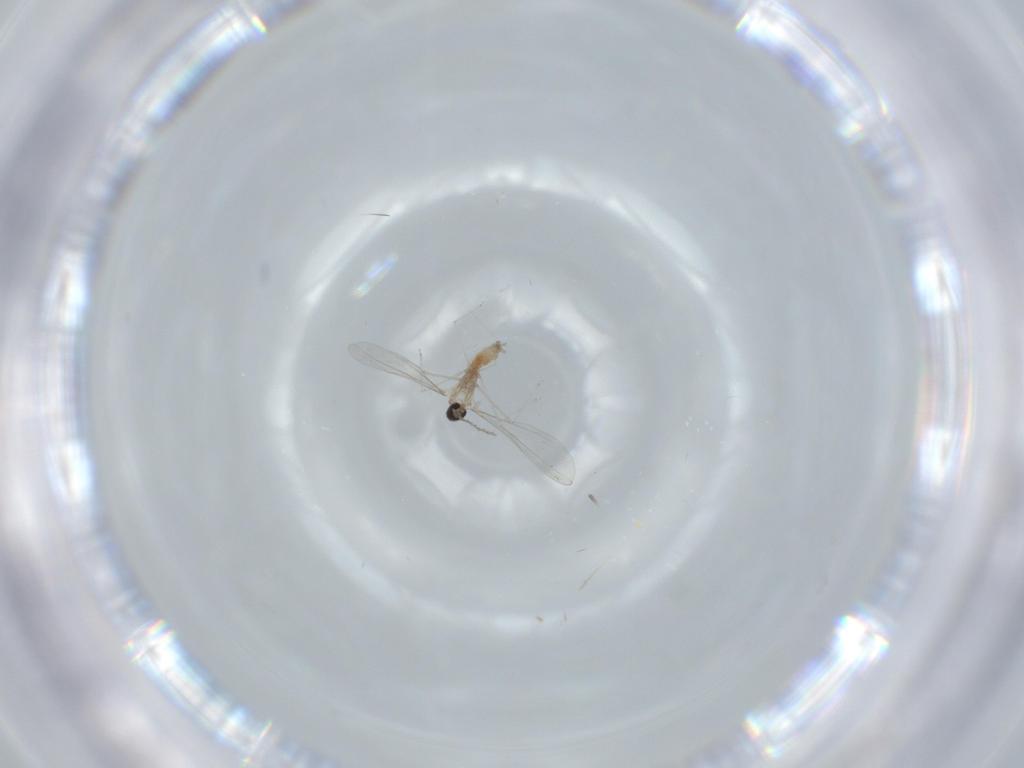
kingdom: Animalia
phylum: Arthropoda
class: Insecta
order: Diptera
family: Cecidomyiidae
